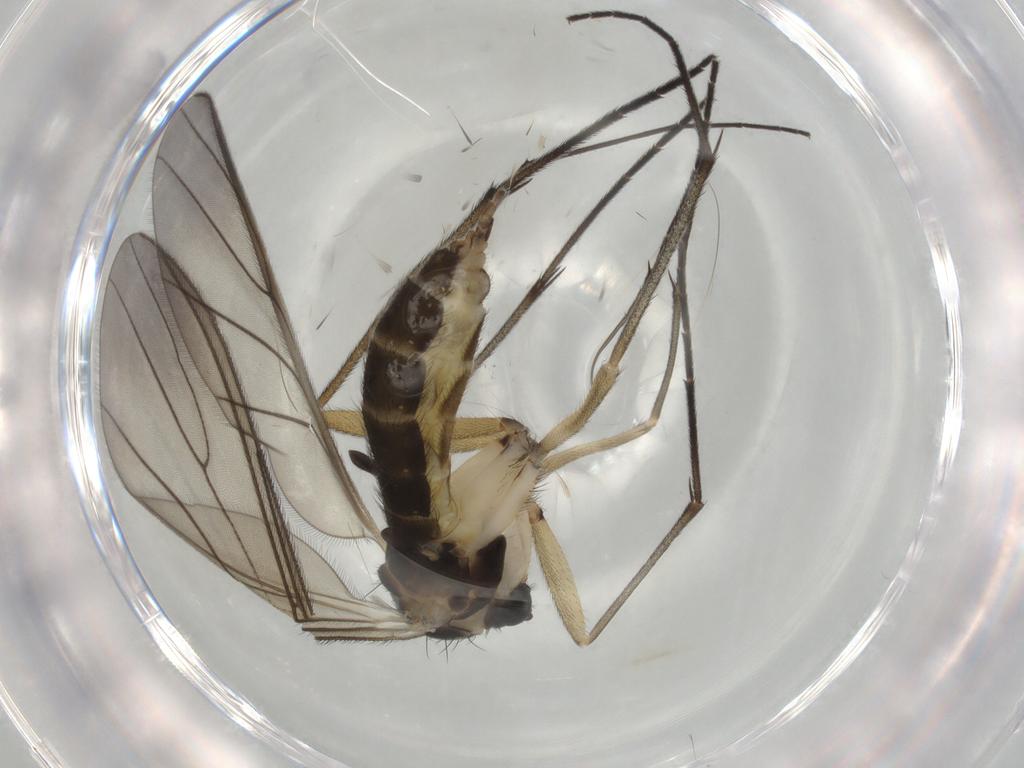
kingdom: Animalia
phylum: Arthropoda
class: Insecta
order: Diptera
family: Sciaridae
